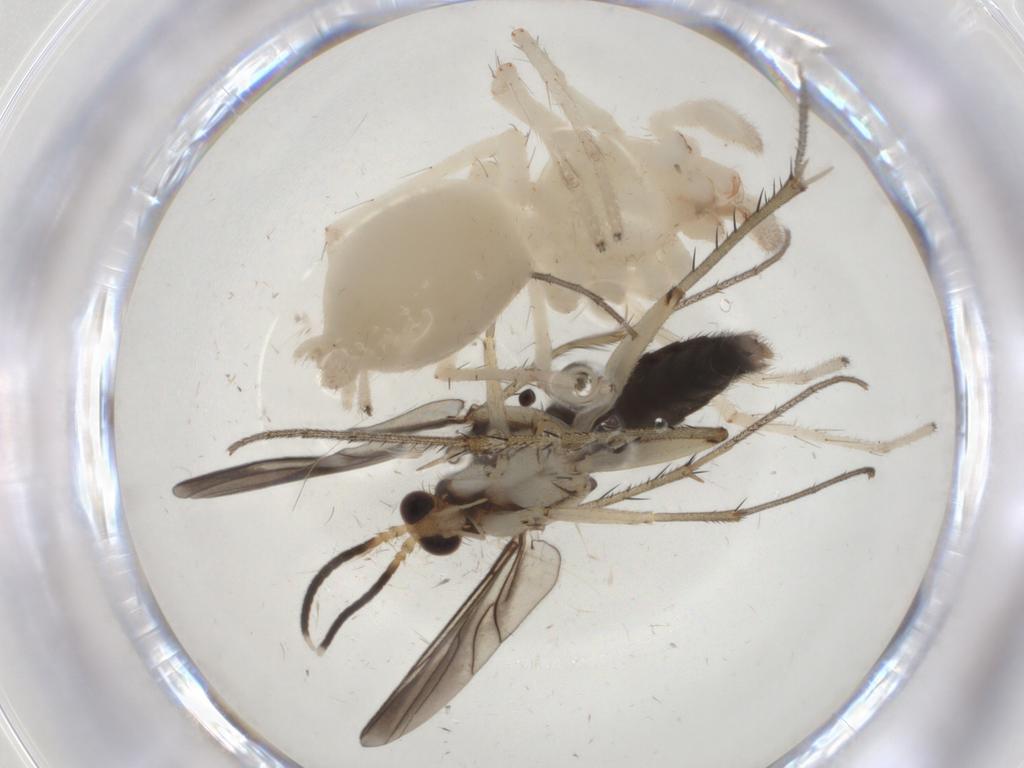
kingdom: Animalia
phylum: Arthropoda
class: Insecta
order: Diptera
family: Mycetophilidae
